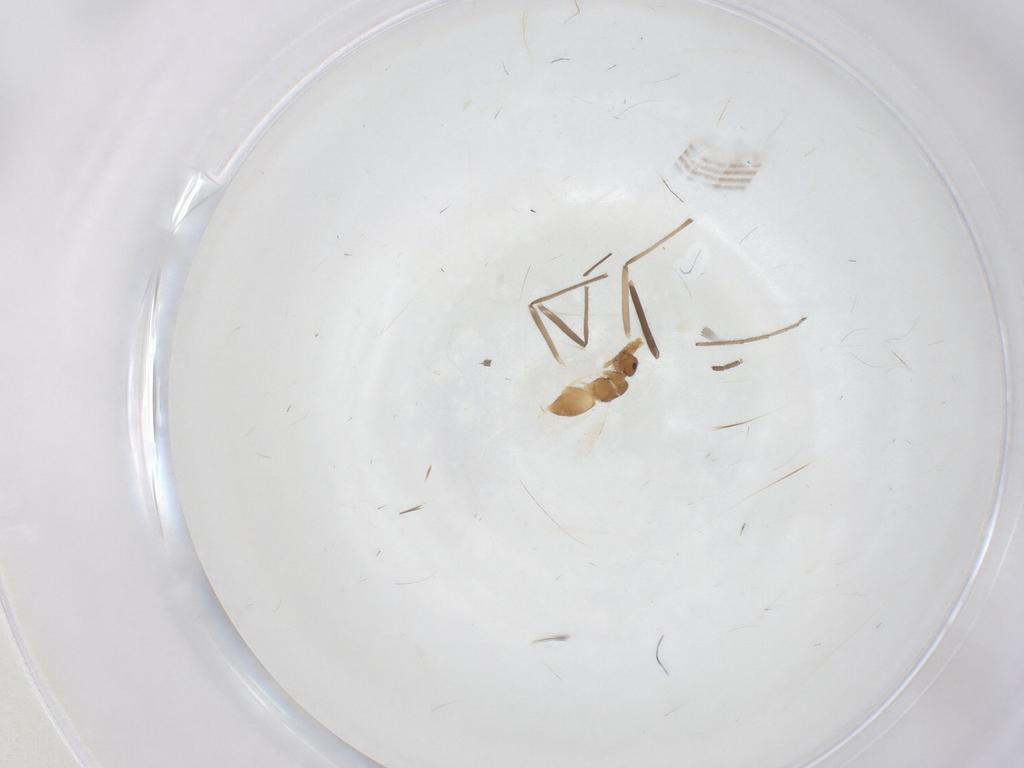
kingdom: Animalia
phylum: Arthropoda
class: Insecta
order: Diptera
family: Chironomidae
